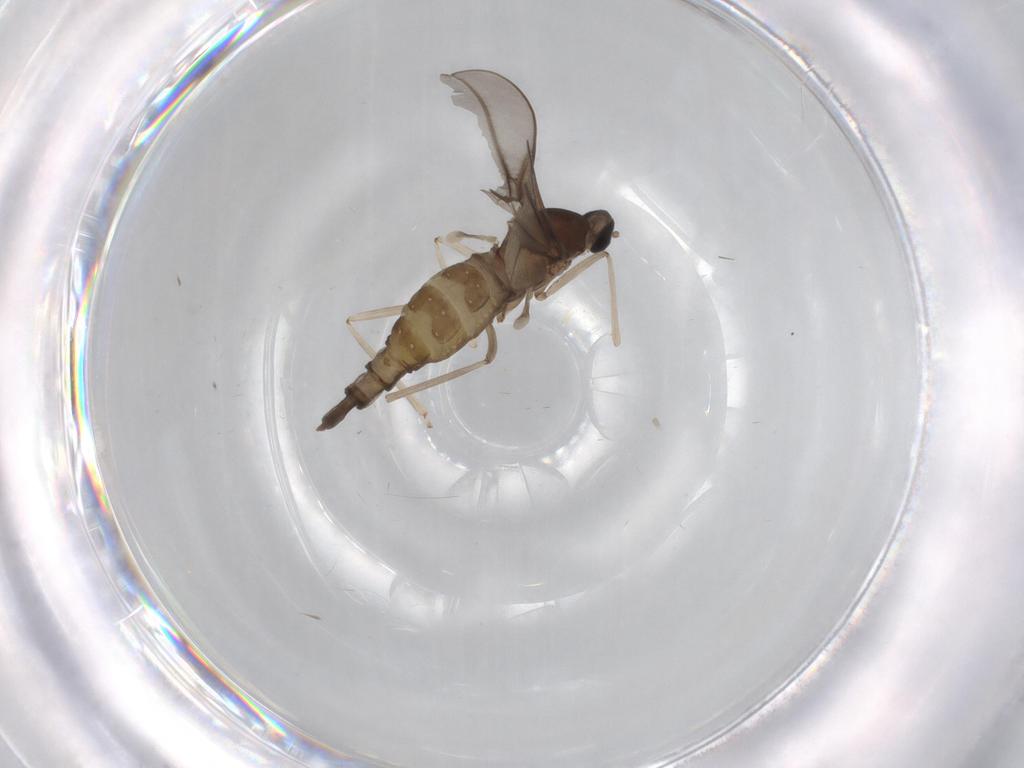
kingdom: Animalia
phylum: Arthropoda
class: Insecta
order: Diptera
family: Cecidomyiidae
